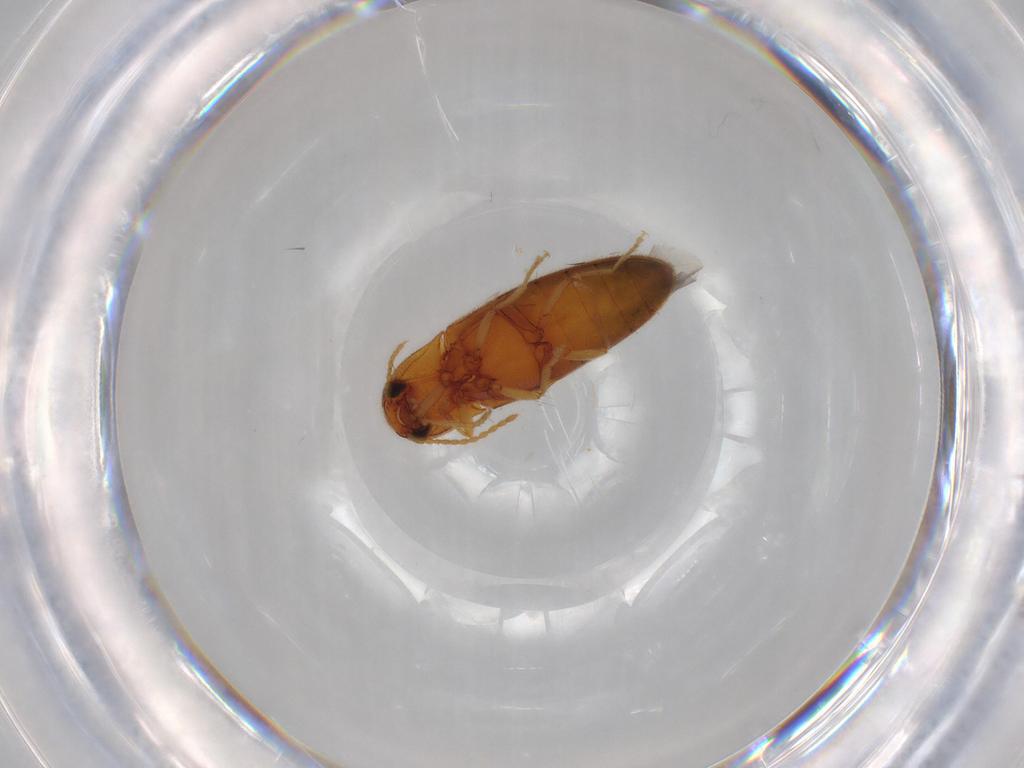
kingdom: Animalia
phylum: Arthropoda
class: Insecta
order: Coleoptera
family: Elateridae
